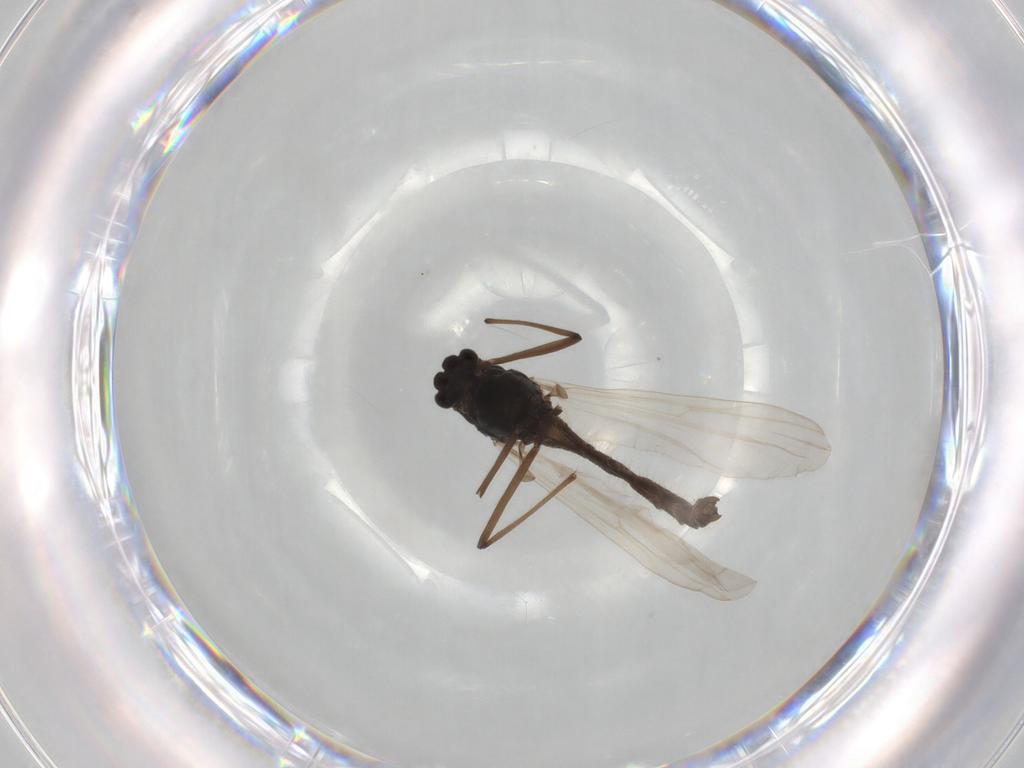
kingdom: Animalia
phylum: Arthropoda
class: Insecta
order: Diptera
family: Chironomidae
